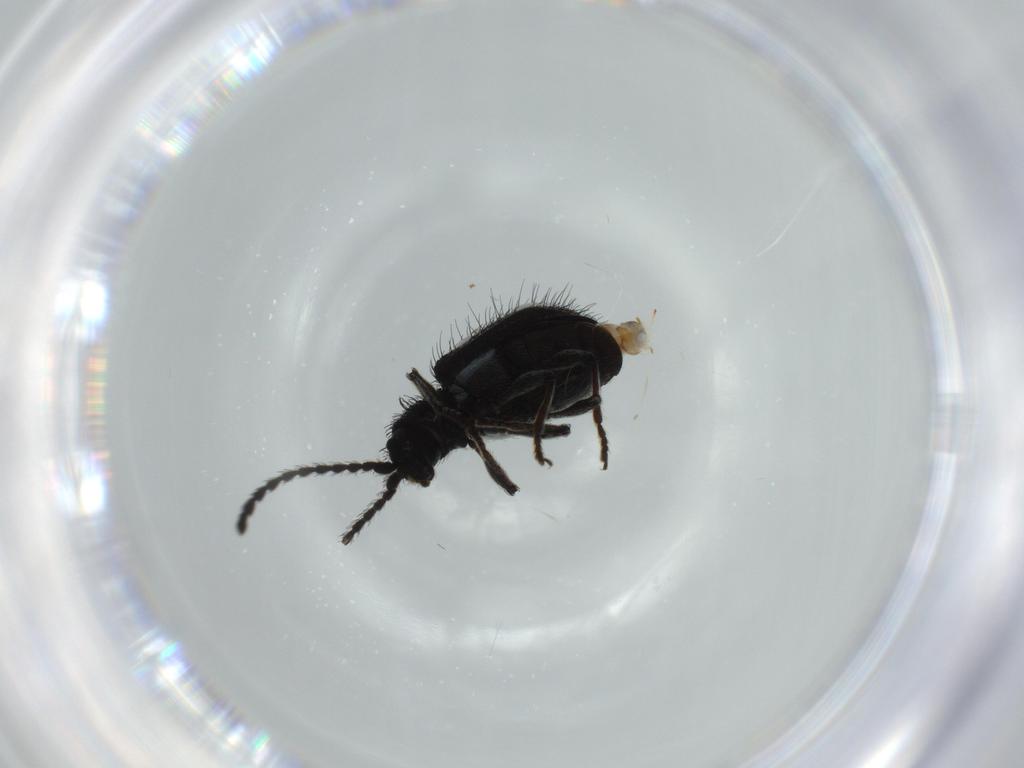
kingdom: Animalia
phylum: Arthropoda
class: Insecta
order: Coleoptera
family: Ptinidae
